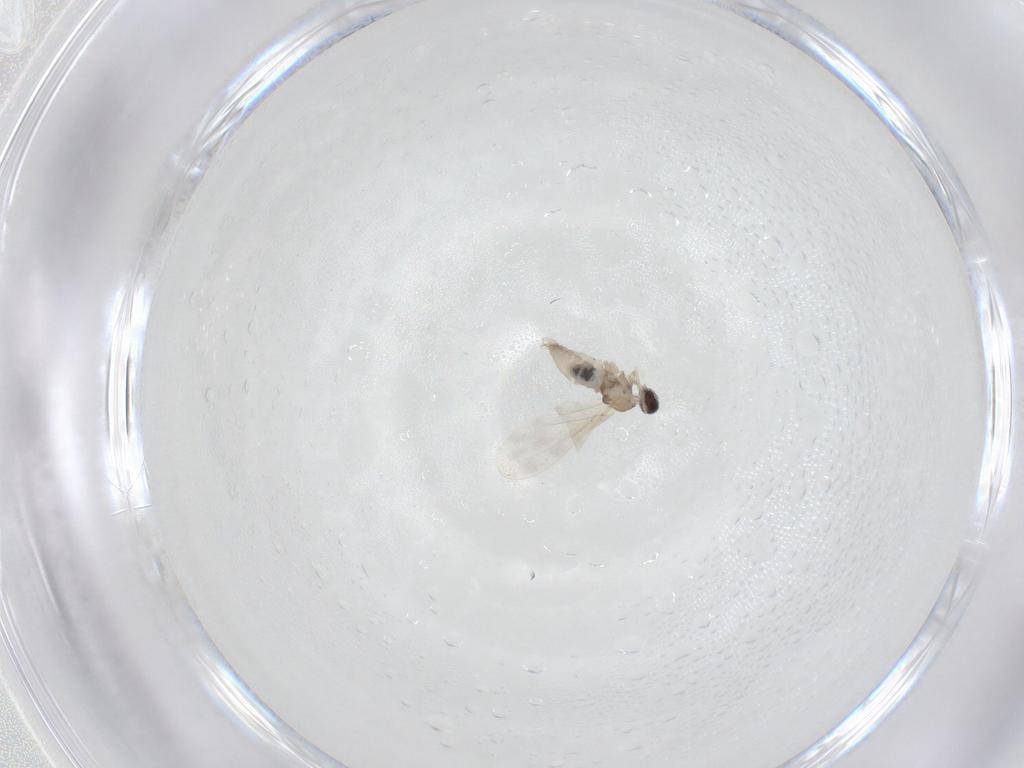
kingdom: Animalia
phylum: Arthropoda
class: Insecta
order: Diptera
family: Cecidomyiidae
